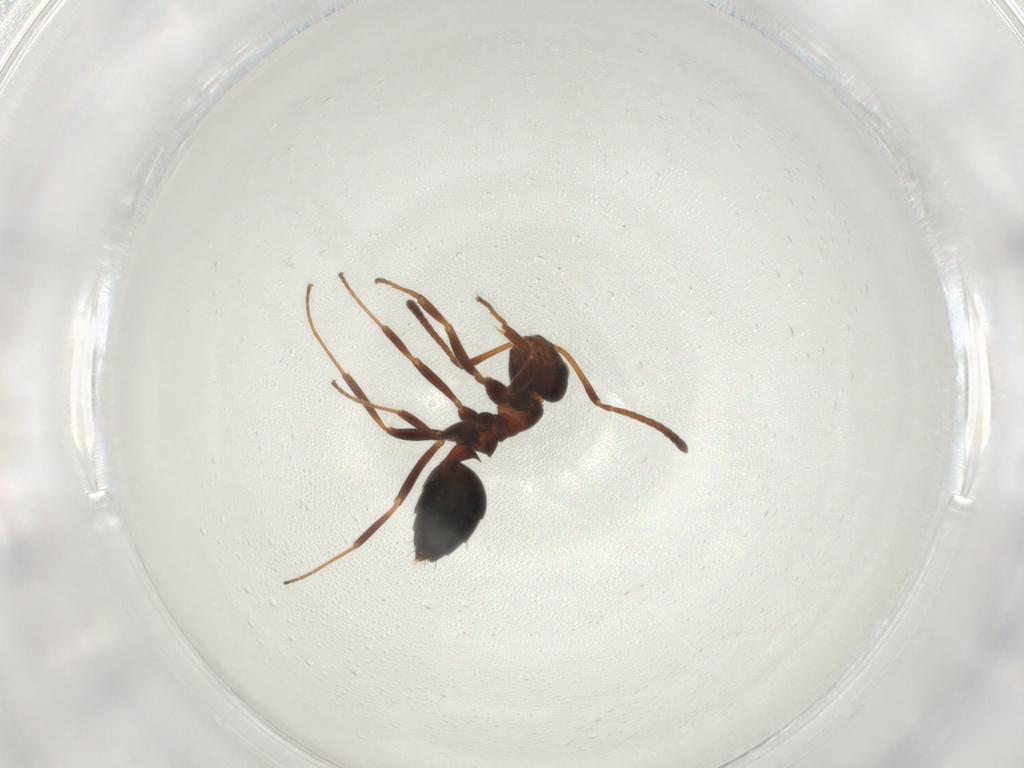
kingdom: Animalia
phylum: Arthropoda
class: Insecta
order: Hymenoptera
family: Formicidae
